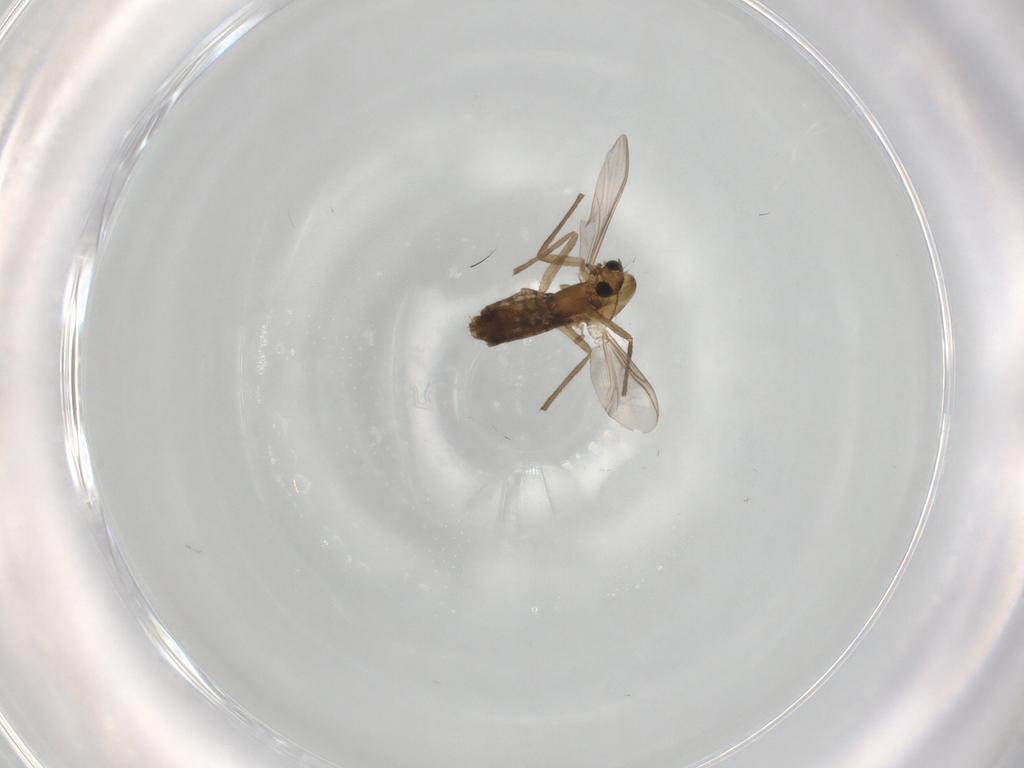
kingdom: Animalia
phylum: Arthropoda
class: Insecta
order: Diptera
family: Chironomidae
